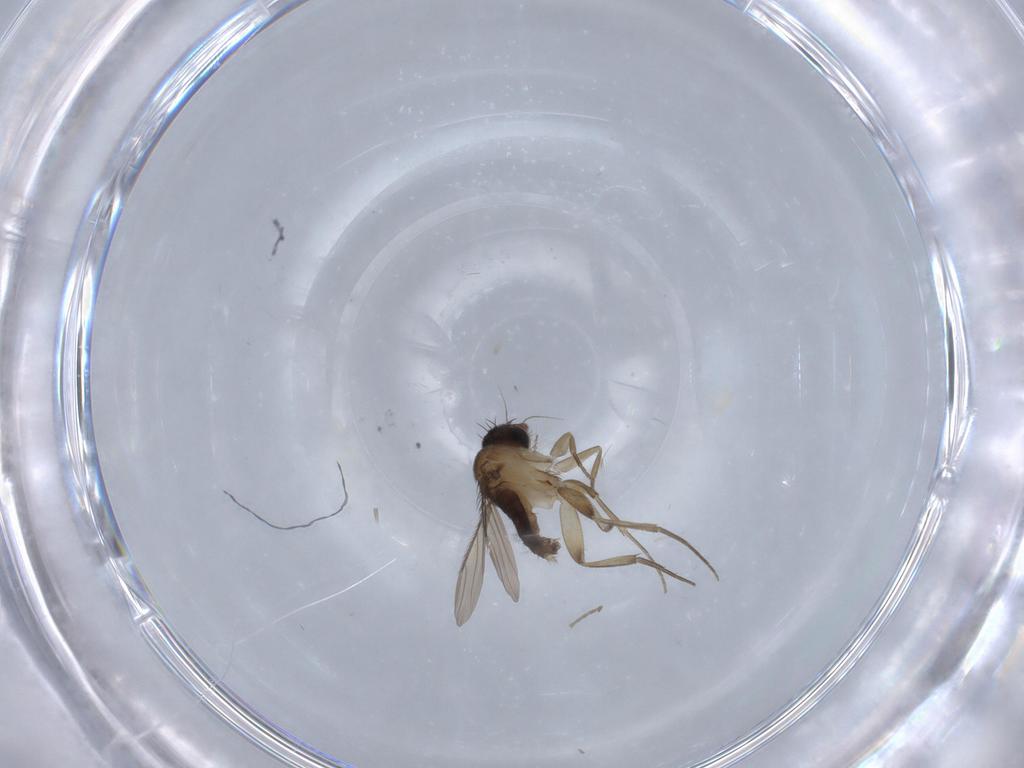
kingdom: Animalia
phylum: Arthropoda
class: Insecta
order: Diptera
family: Phoridae
